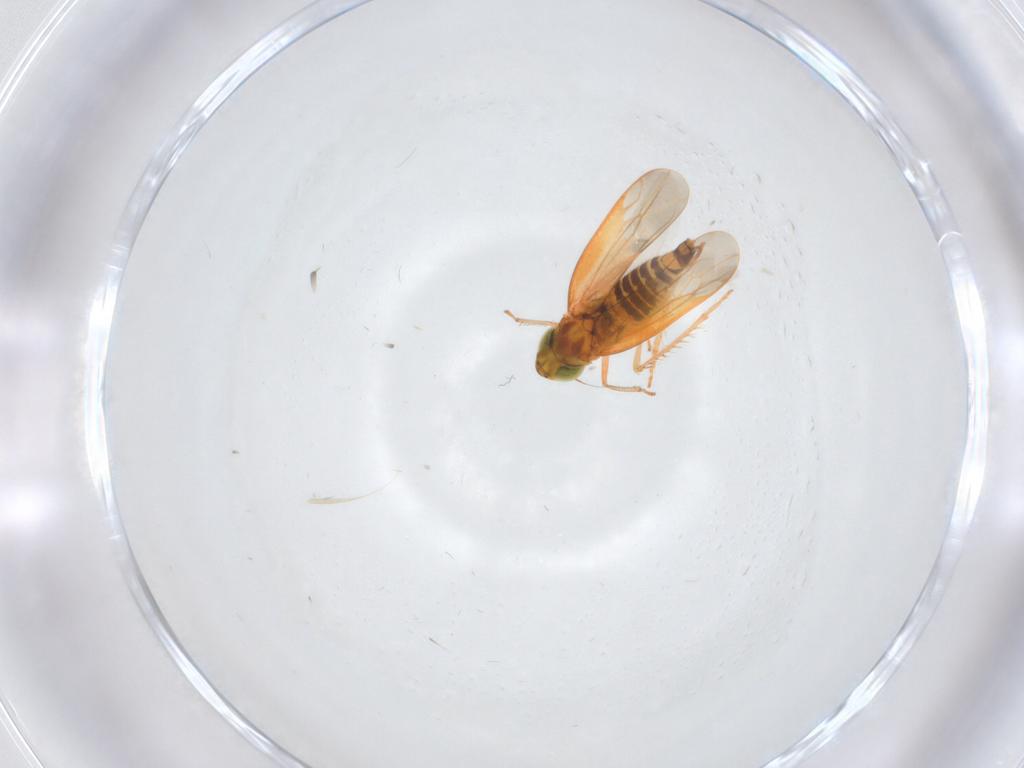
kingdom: Animalia
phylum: Arthropoda
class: Insecta
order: Hemiptera
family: Cicadellidae
